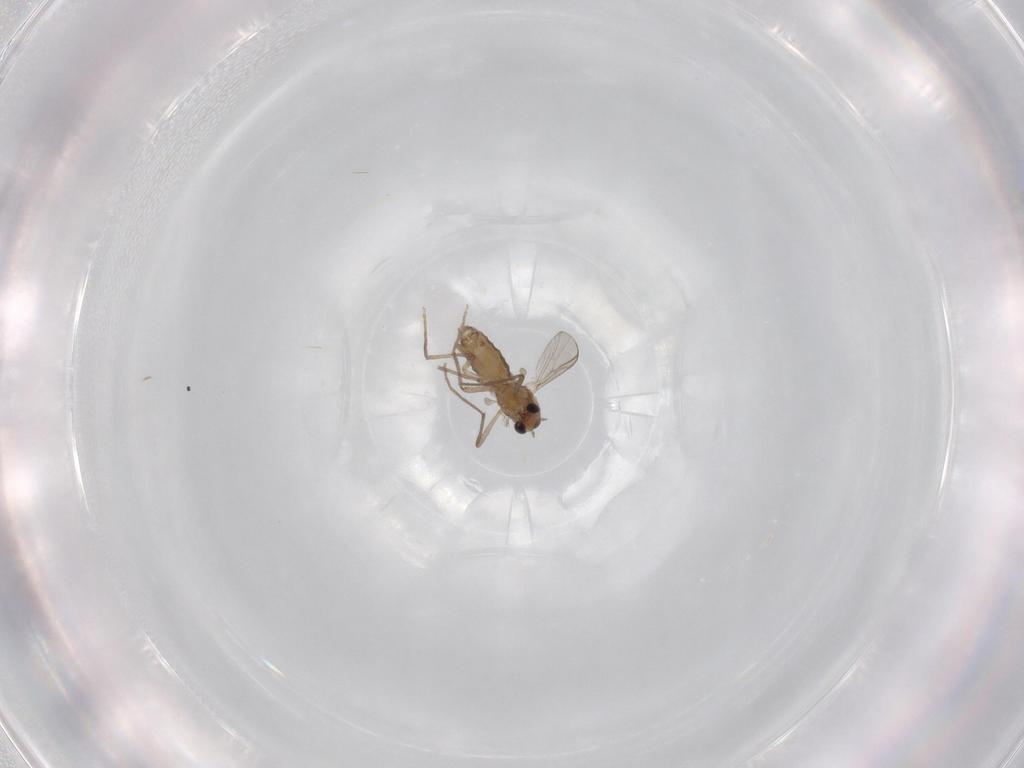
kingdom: Animalia
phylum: Arthropoda
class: Insecta
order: Diptera
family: Chironomidae
